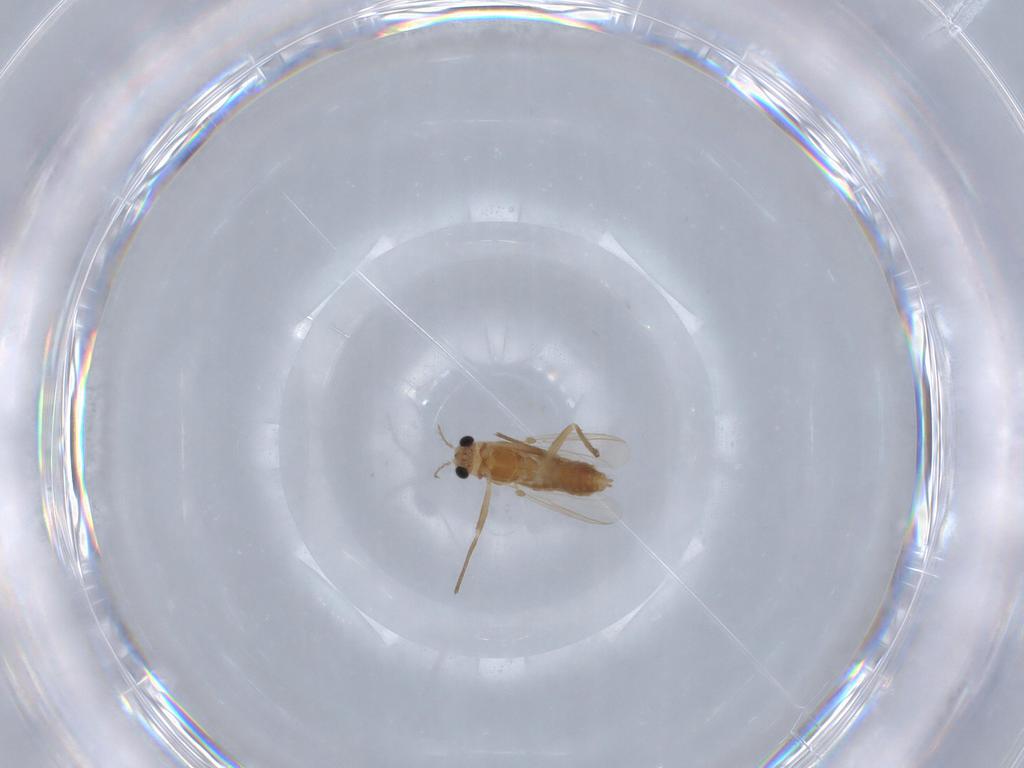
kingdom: Animalia
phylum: Arthropoda
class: Insecta
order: Diptera
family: Chironomidae
